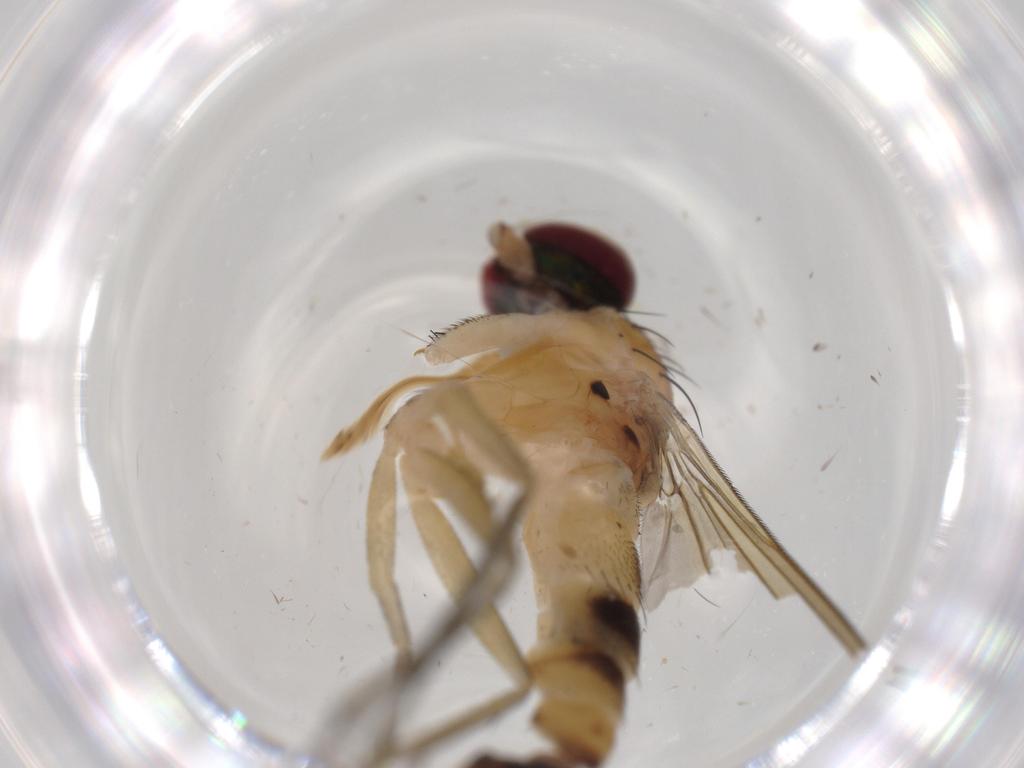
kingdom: Animalia
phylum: Arthropoda
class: Insecta
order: Diptera
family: Dolichopodidae
